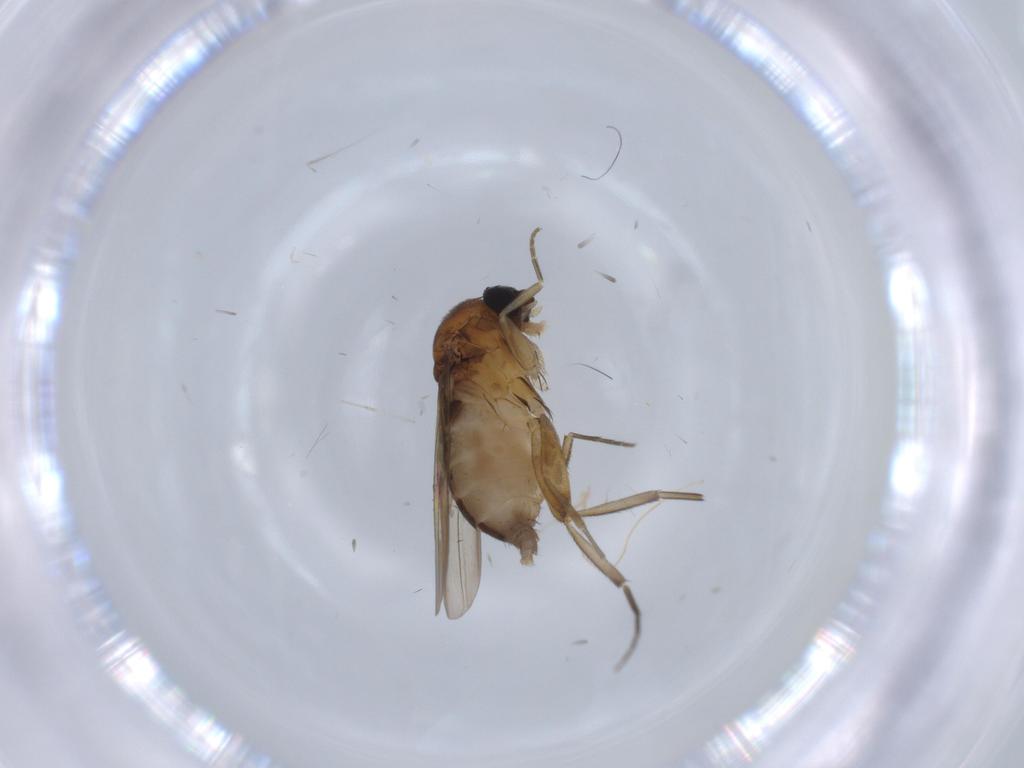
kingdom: Animalia
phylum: Arthropoda
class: Insecta
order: Diptera
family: Phoridae
